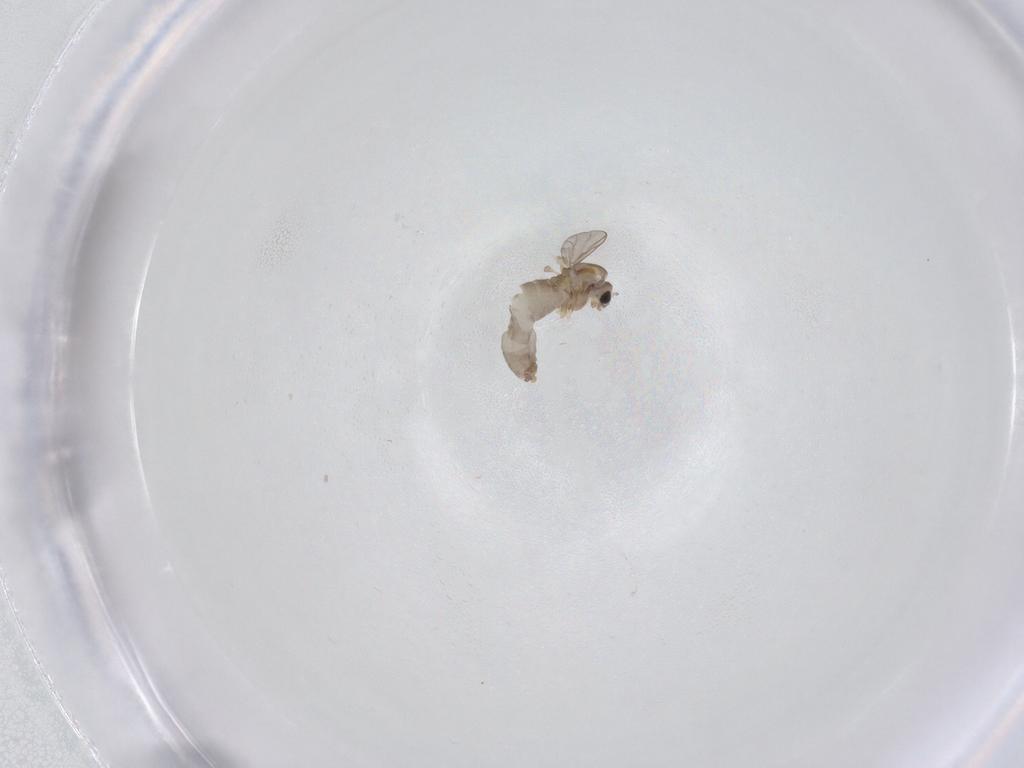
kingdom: Animalia
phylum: Arthropoda
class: Insecta
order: Diptera
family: Chironomidae
